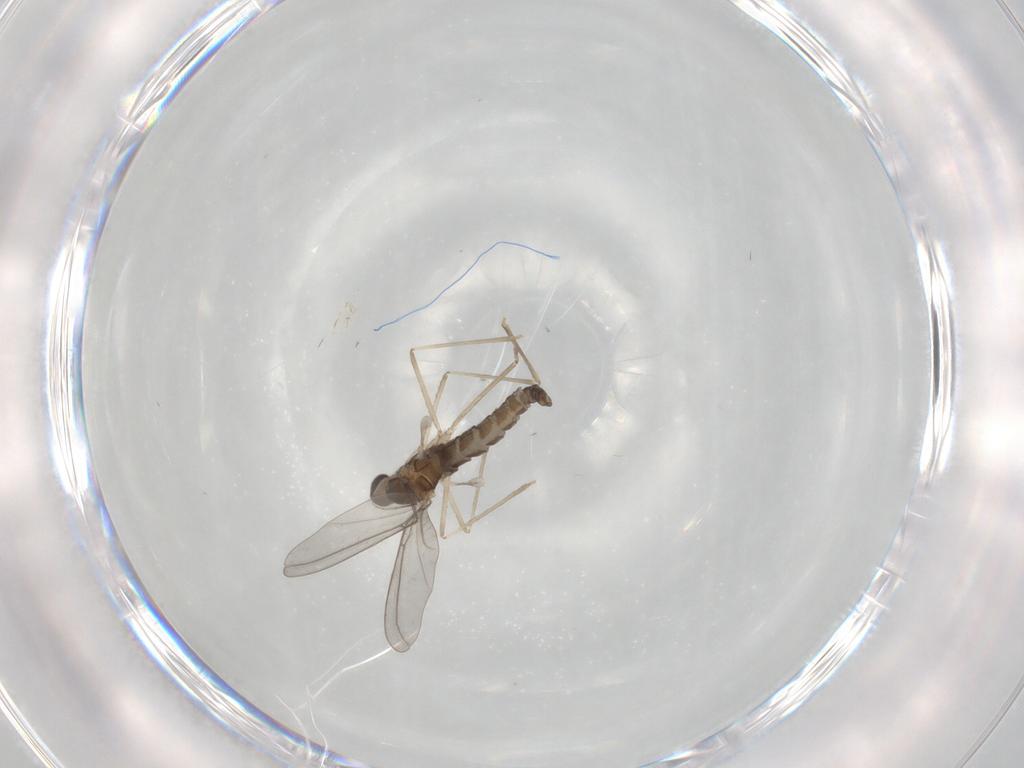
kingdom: Animalia
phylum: Arthropoda
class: Insecta
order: Diptera
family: Cecidomyiidae
